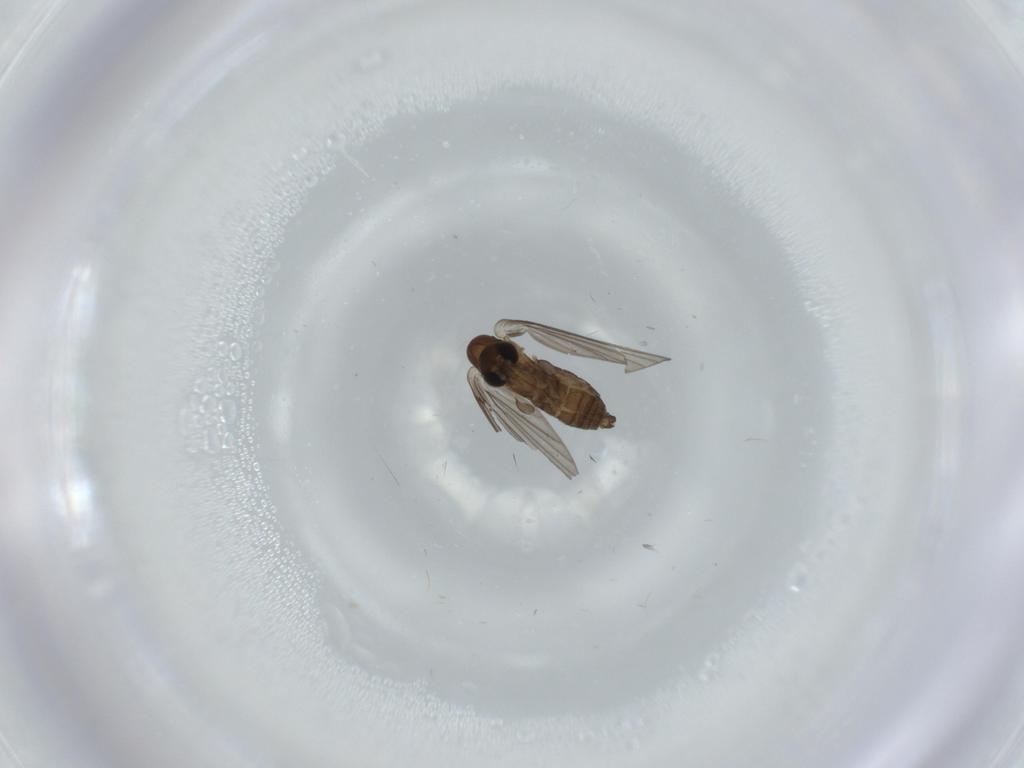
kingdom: Animalia
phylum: Arthropoda
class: Insecta
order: Diptera
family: Psychodidae
